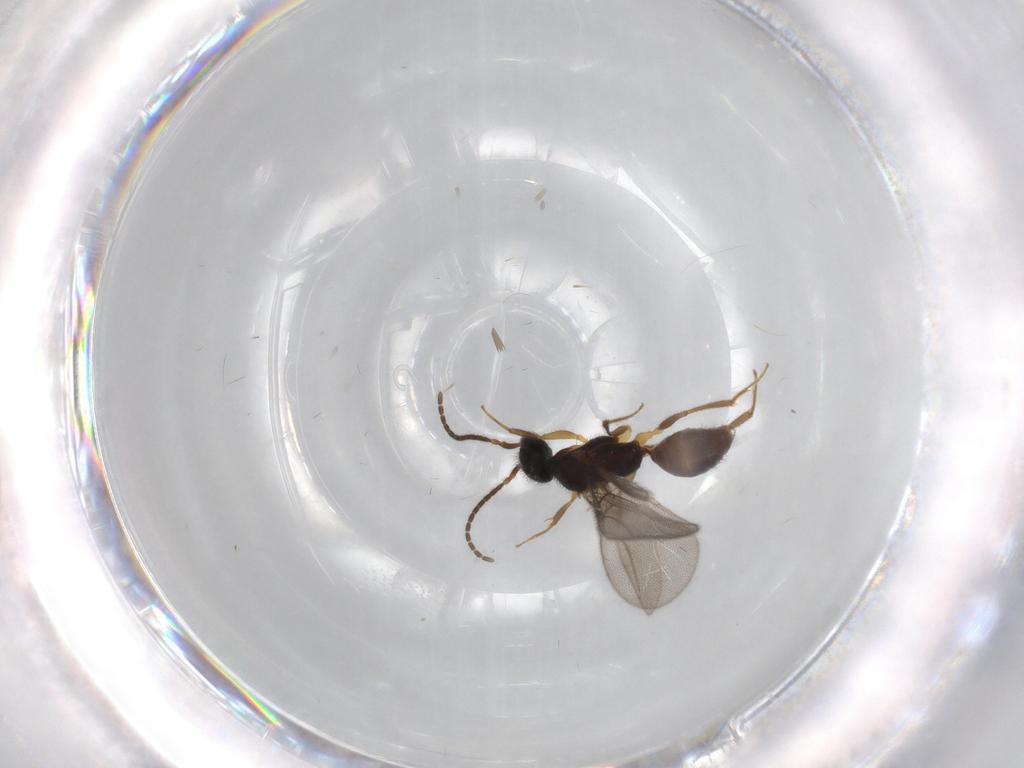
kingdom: Animalia
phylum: Arthropoda
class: Insecta
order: Hymenoptera
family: Bethylidae
